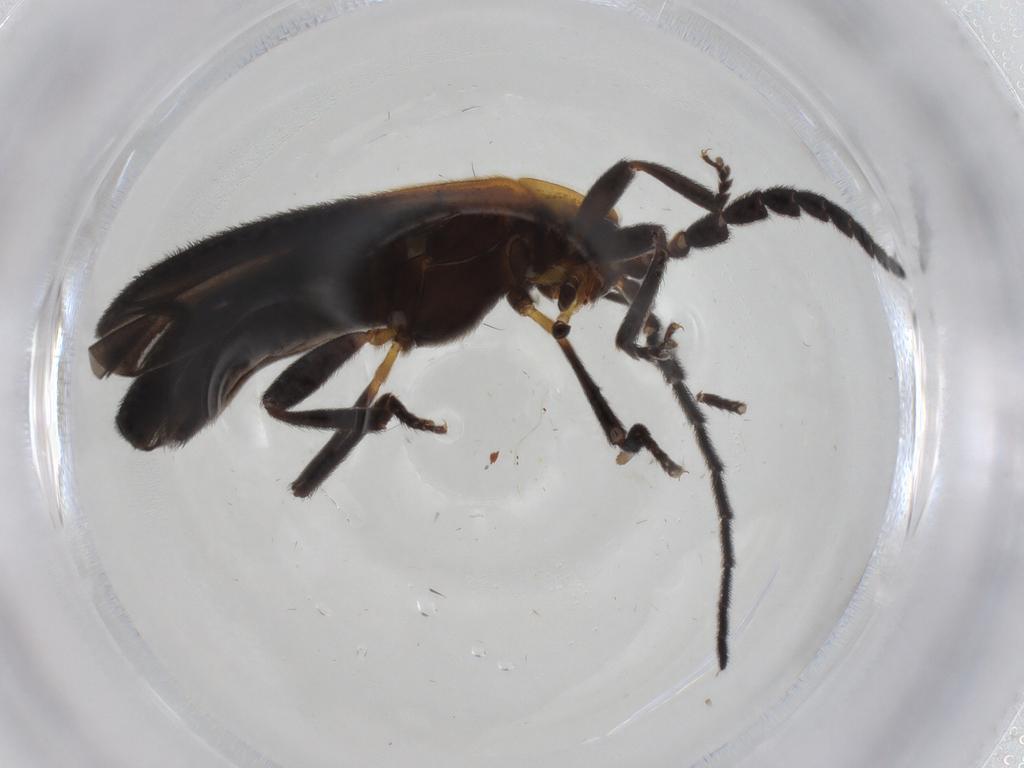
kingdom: Animalia
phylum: Arthropoda
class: Insecta
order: Coleoptera
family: Lycidae
